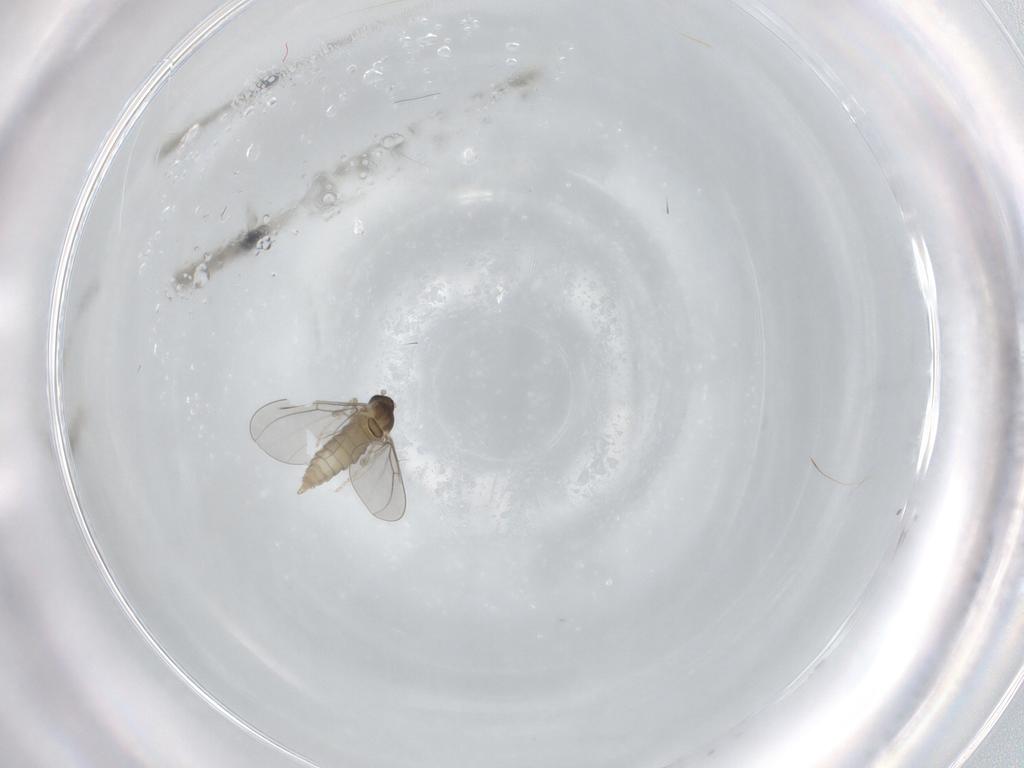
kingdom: Animalia
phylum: Arthropoda
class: Insecta
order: Diptera
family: Cecidomyiidae
